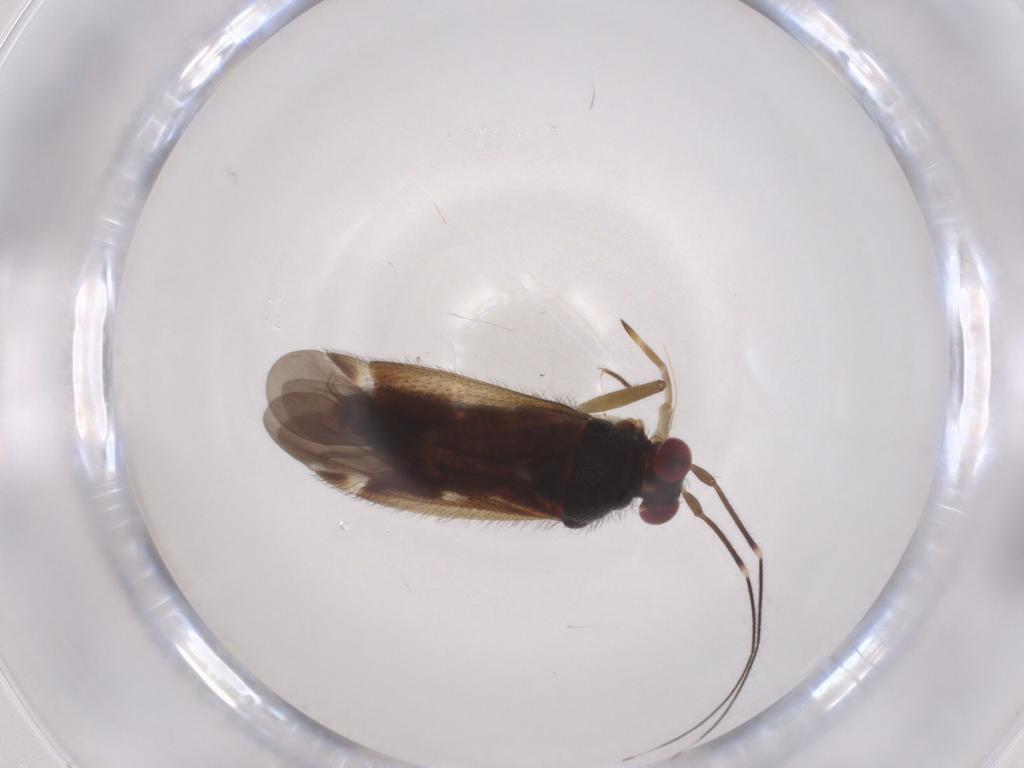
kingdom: Animalia
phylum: Arthropoda
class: Insecta
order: Hemiptera
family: Miridae
